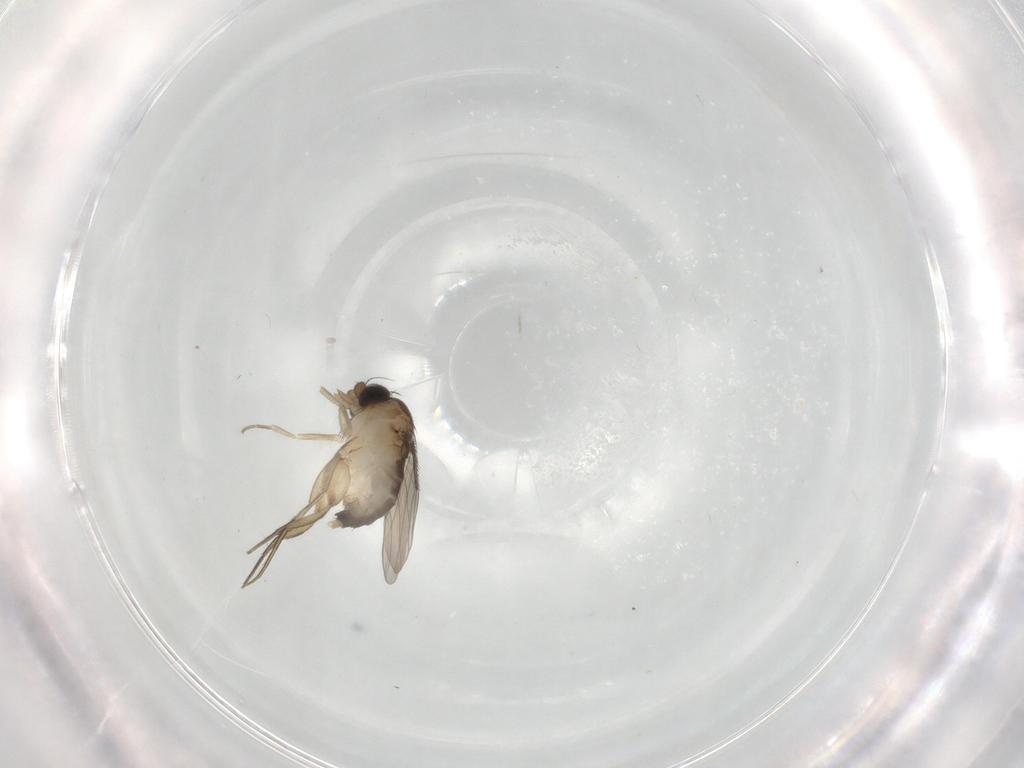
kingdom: Animalia
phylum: Arthropoda
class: Insecta
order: Diptera
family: Phoridae
